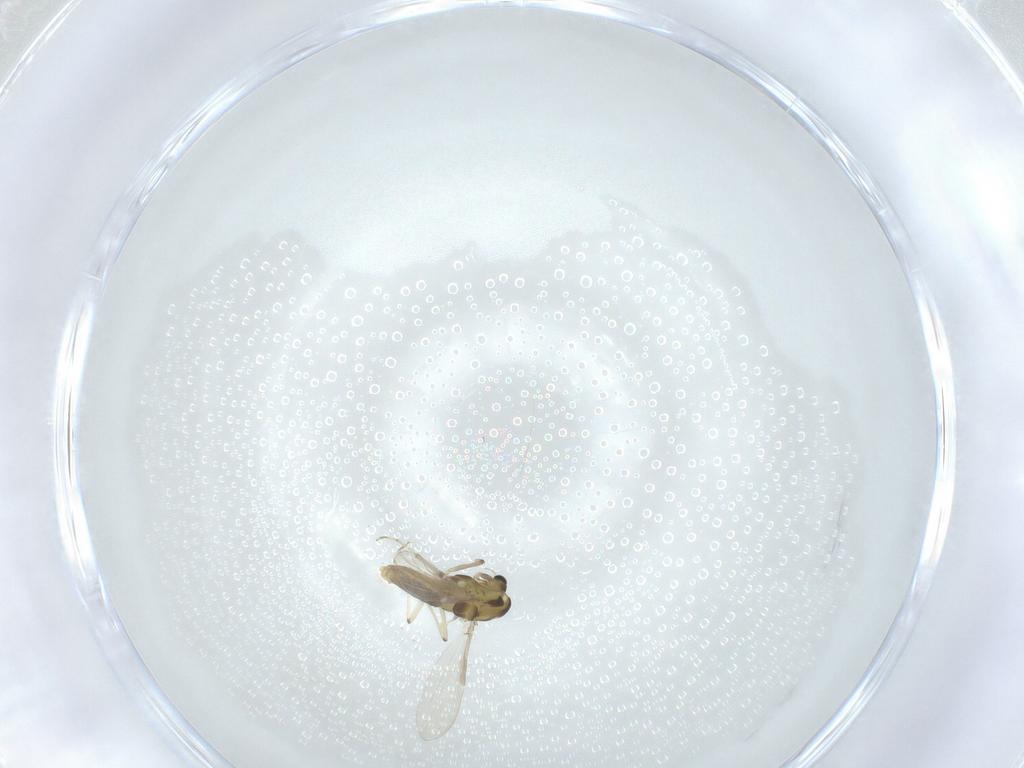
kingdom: Animalia
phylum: Arthropoda
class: Insecta
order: Diptera
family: Chironomidae
